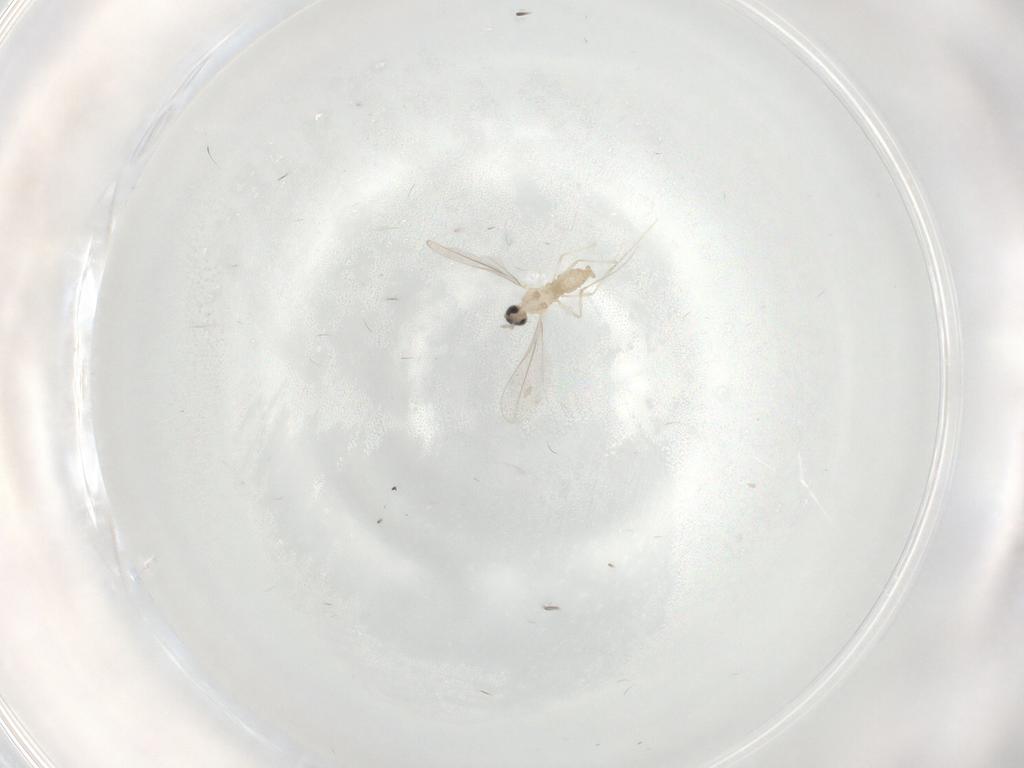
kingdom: Animalia
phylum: Arthropoda
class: Insecta
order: Diptera
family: Cecidomyiidae
